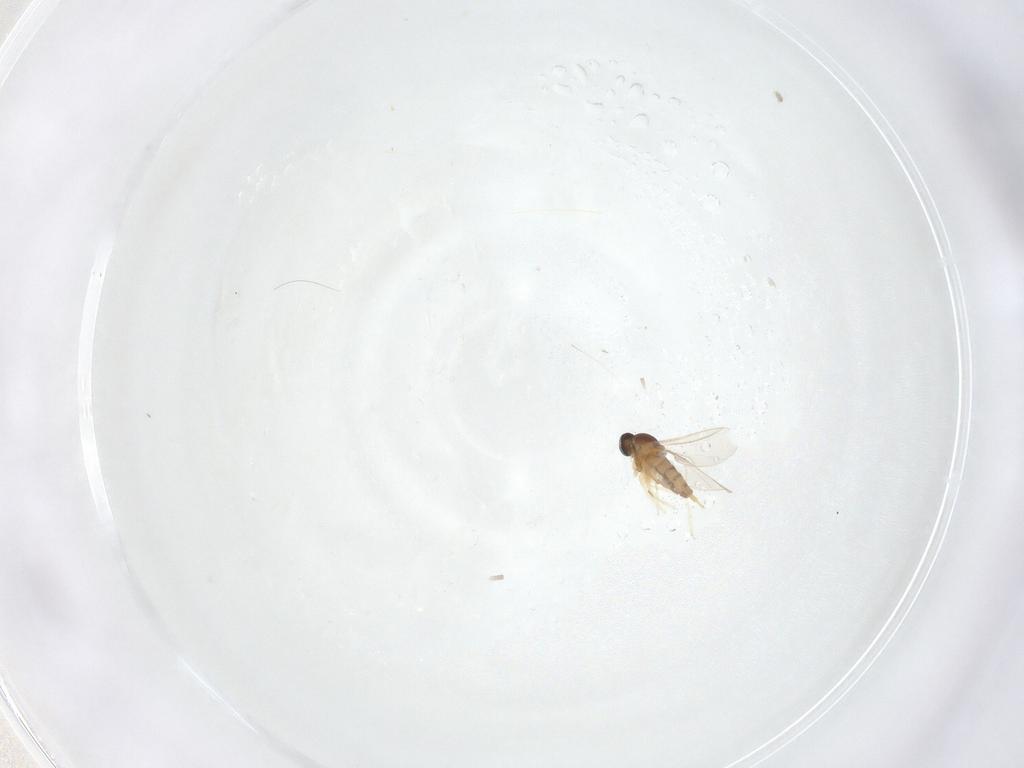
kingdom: Animalia
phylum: Arthropoda
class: Insecta
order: Diptera
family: Cecidomyiidae
